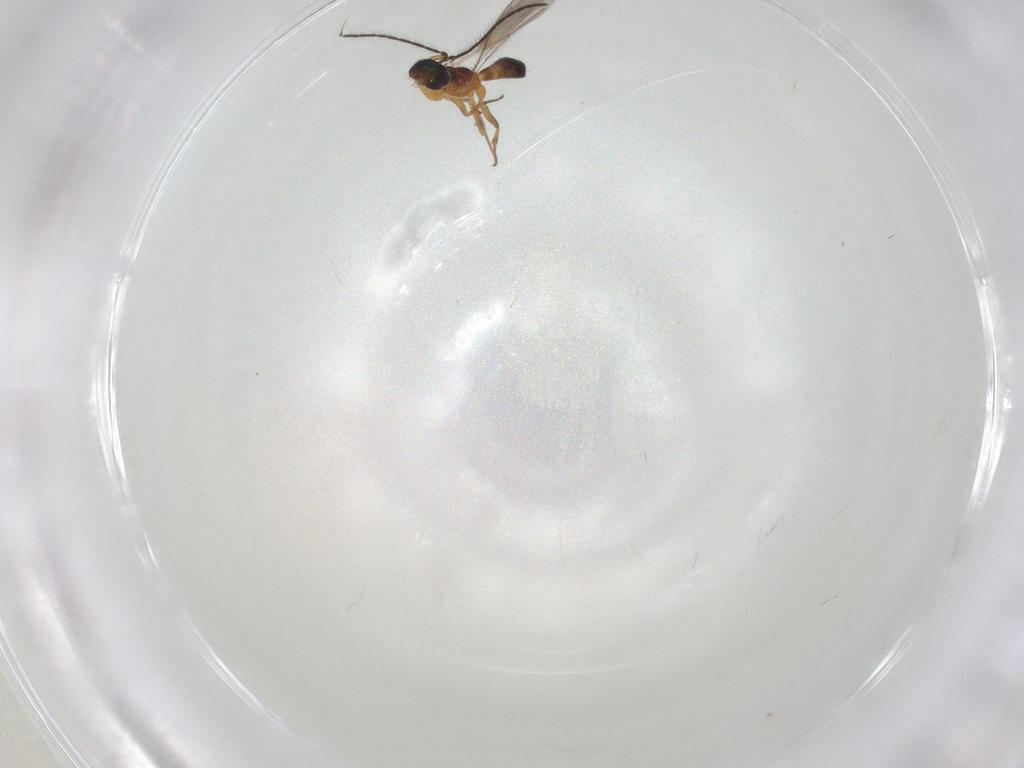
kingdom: Animalia
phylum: Arthropoda
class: Insecta
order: Hymenoptera
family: Eupelmidae
